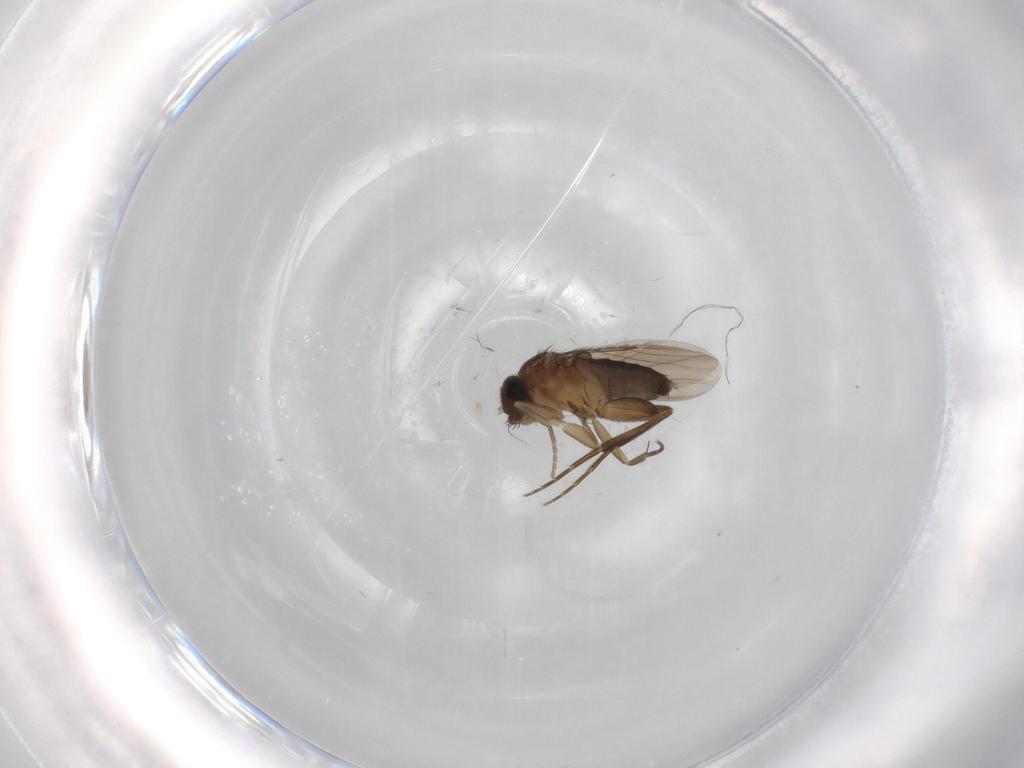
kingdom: Animalia
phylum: Arthropoda
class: Insecta
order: Diptera
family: Phoridae
